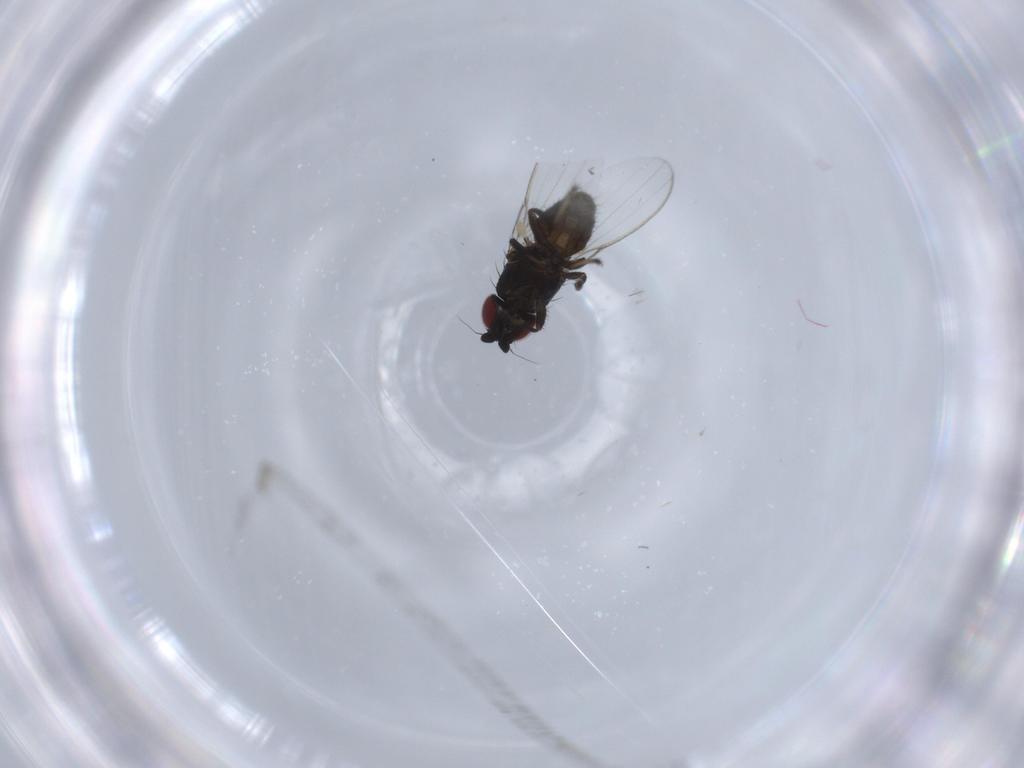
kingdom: Animalia
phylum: Arthropoda
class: Insecta
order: Diptera
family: Milichiidae
